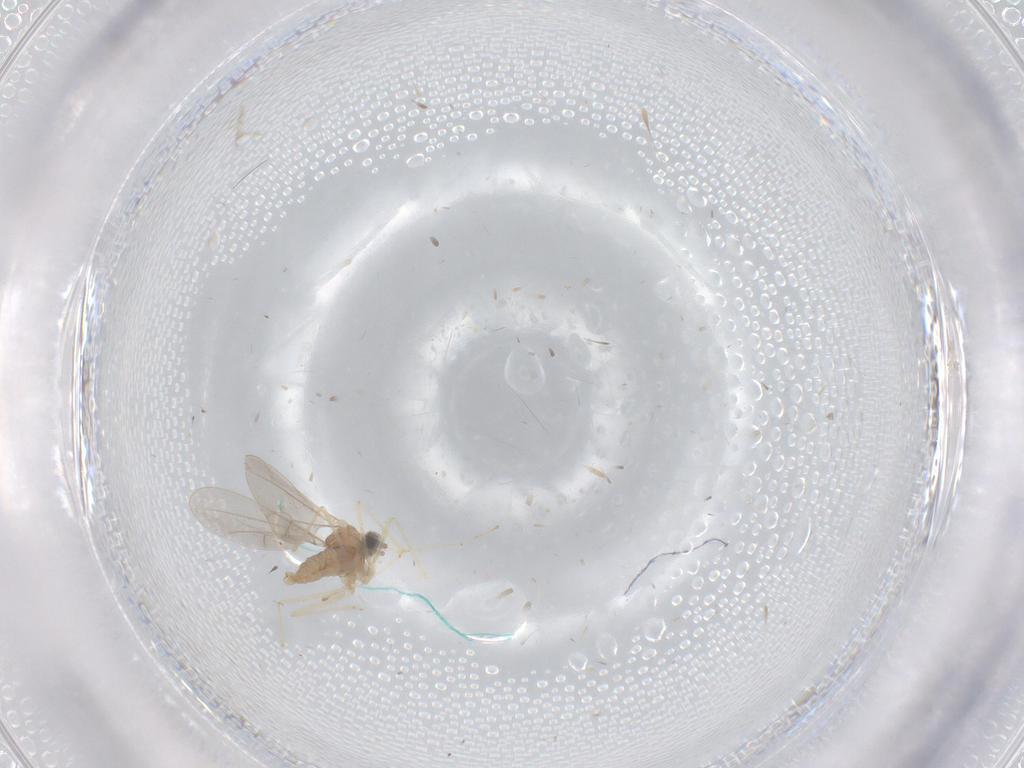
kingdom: Animalia
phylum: Arthropoda
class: Insecta
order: Diptera
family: Cecidomyiidae
